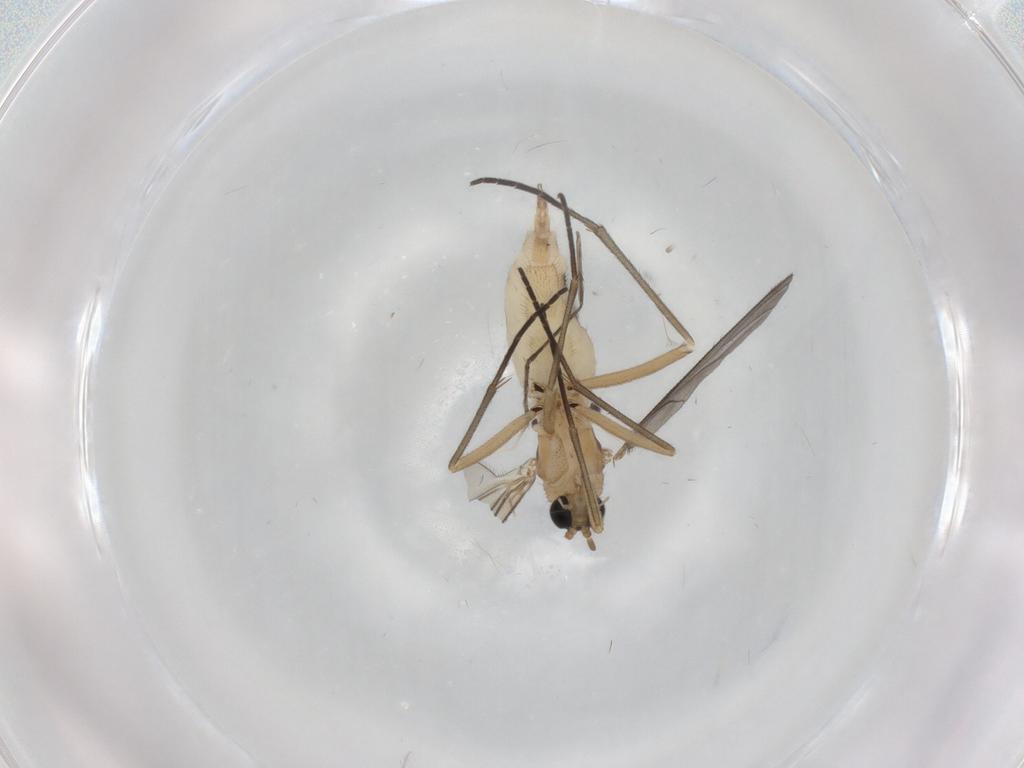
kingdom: Animalia
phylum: Arthropoda
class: Insecta
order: Diptera
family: Sciaridae
